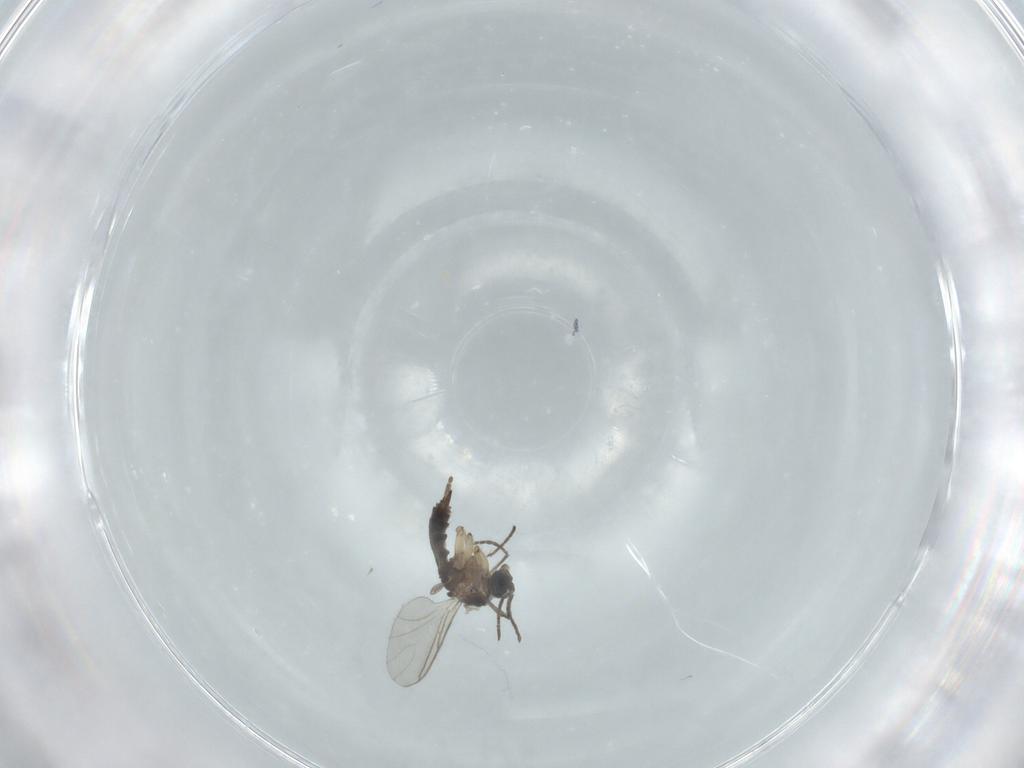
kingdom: Animalia
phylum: Arthropoda
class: Insecta
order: Diptera
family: Sciaridae
